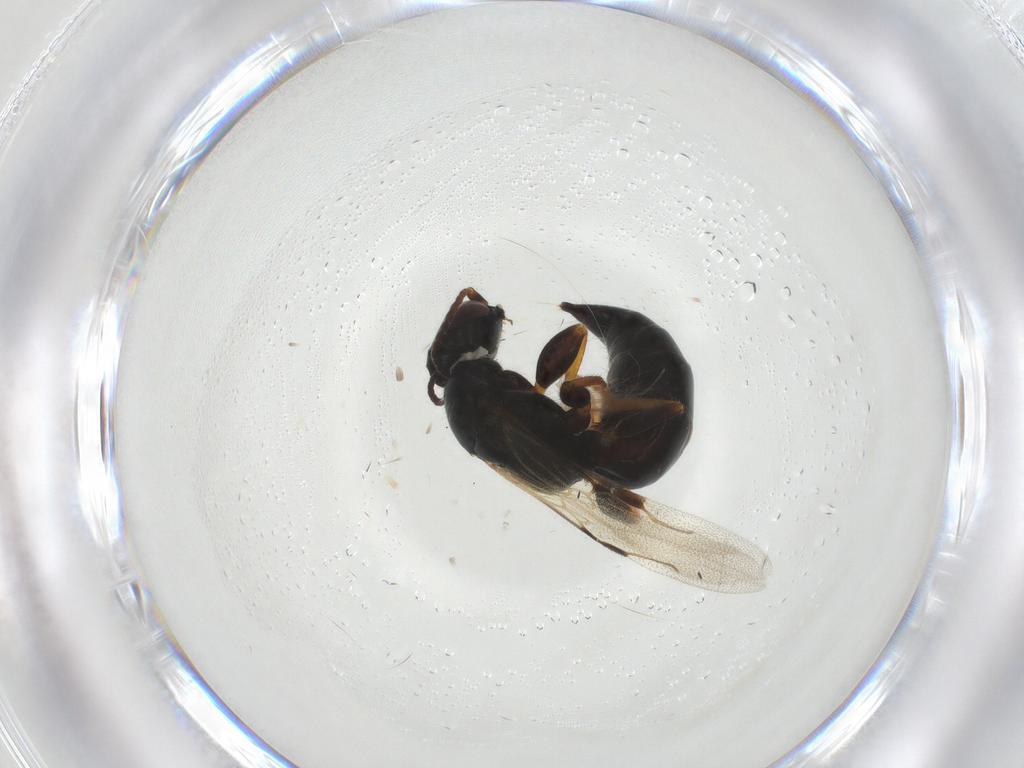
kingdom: Animalia
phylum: Arthropoda
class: Insecta
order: Hymenoptera
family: Bethylidae
